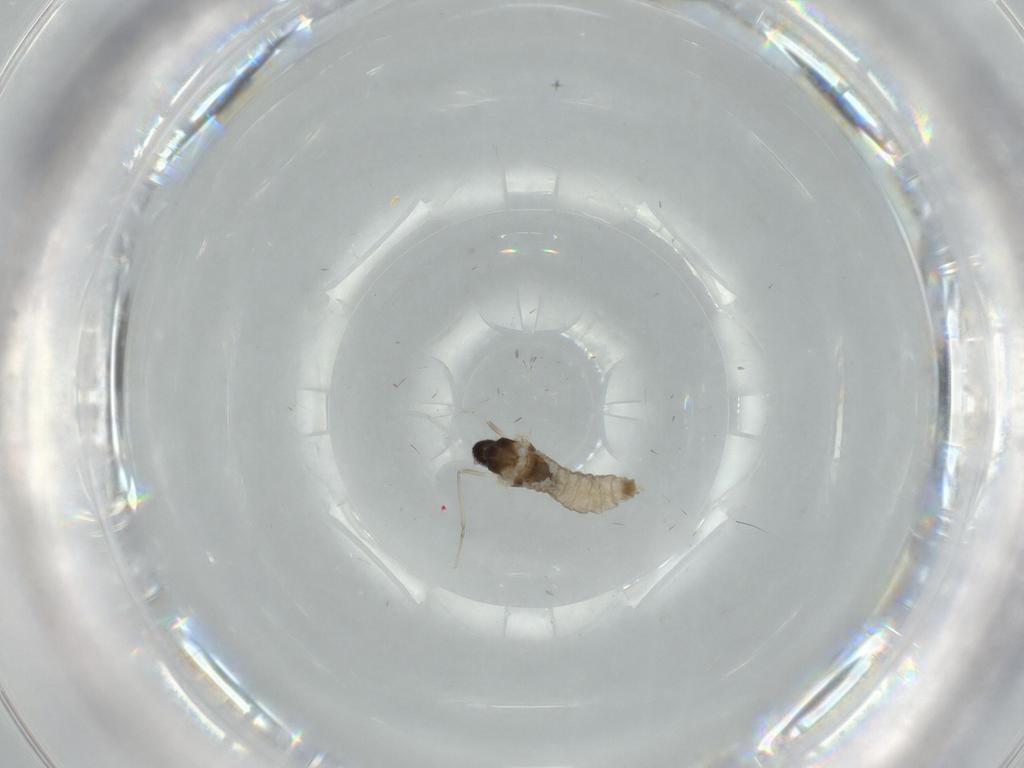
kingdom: Animalia
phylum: Arthropoda
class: Insecta
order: Diptera
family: Cecidomyiidae
